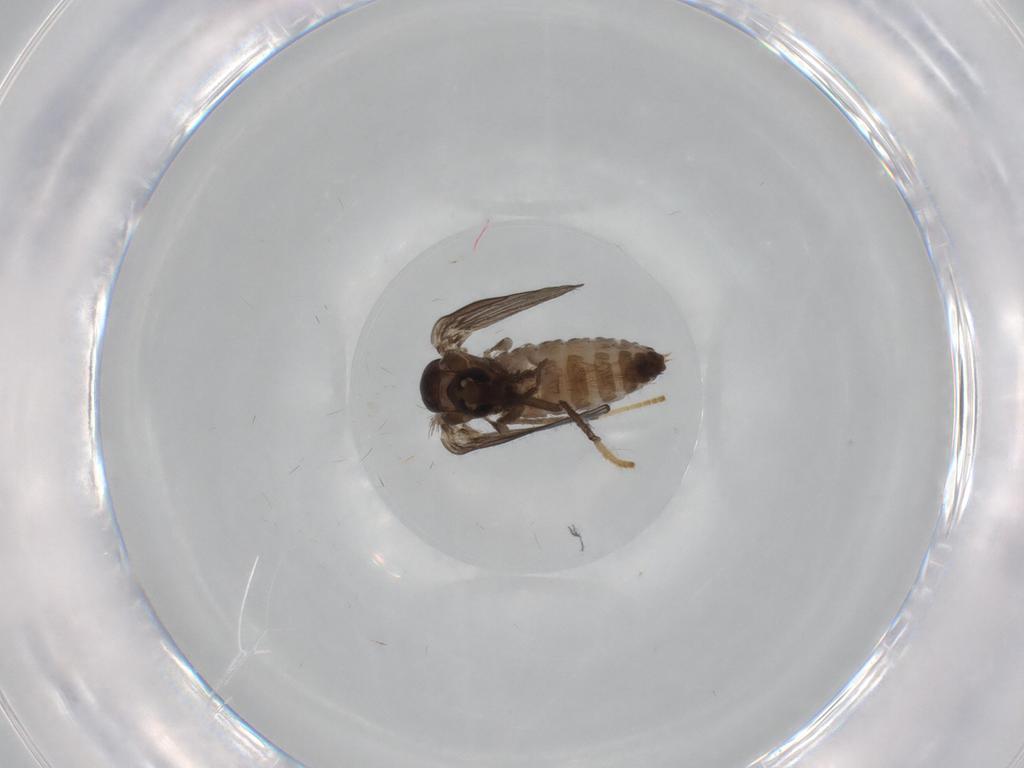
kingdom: Animalia
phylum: Arthropoda
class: Insecta
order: Diptera
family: Psychodidae
